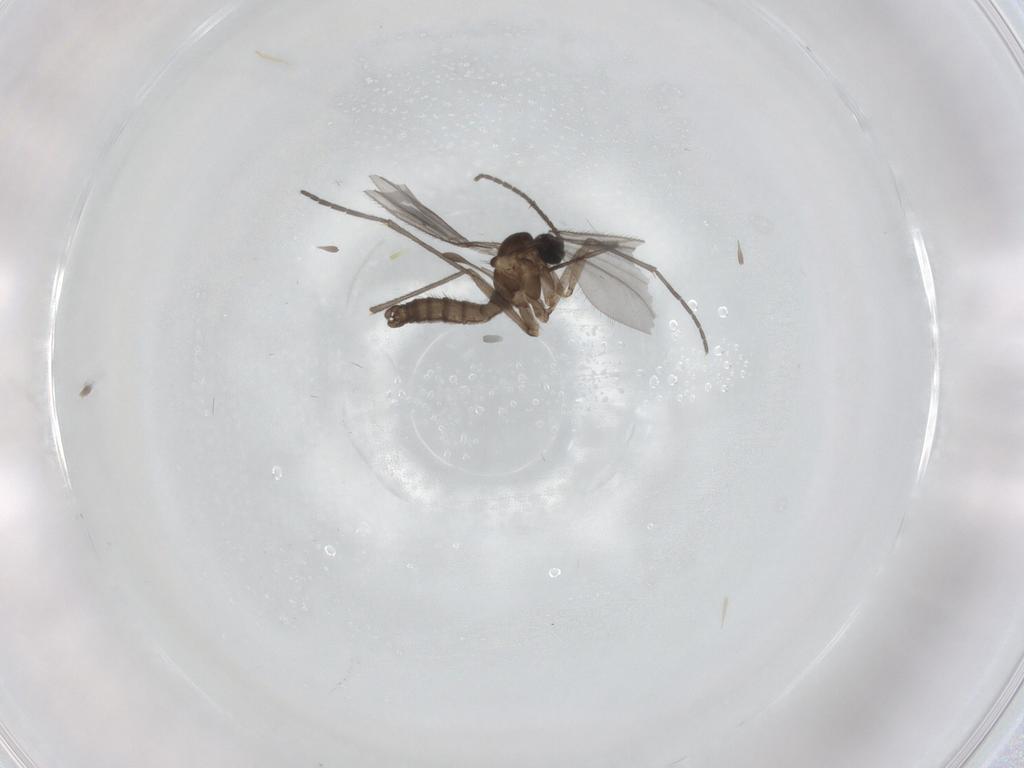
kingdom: Animalia
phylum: Arthropoda
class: Insecta
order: Diptera
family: Sciaridae
